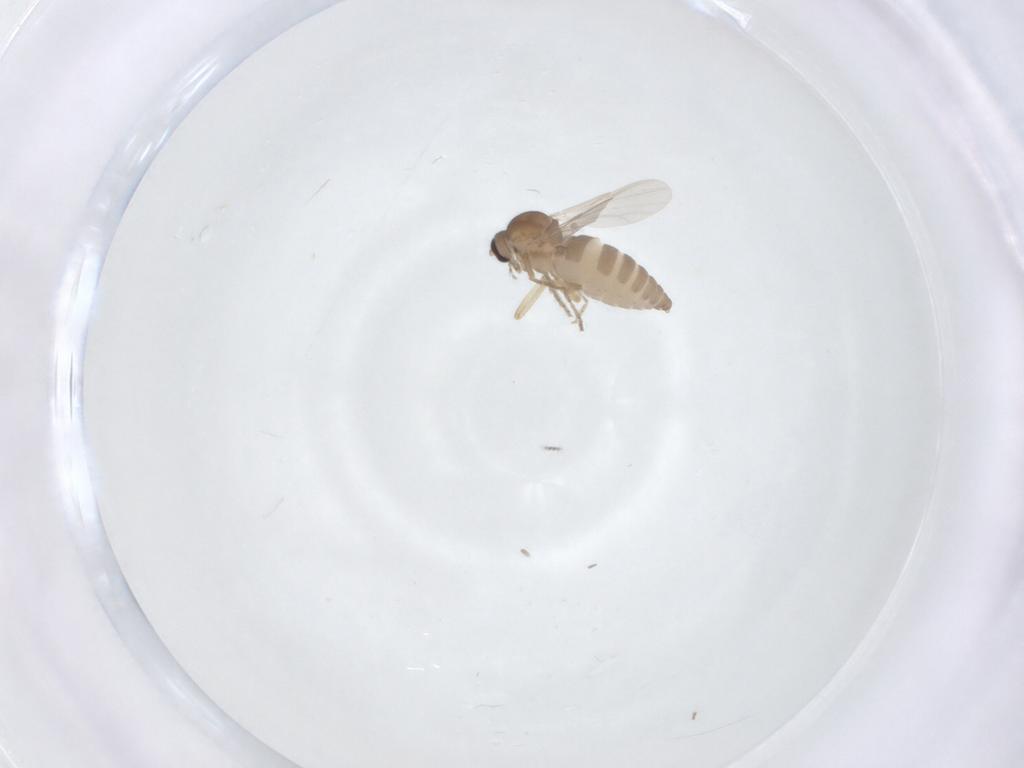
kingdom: Animalia
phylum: Arthropoda
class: Insecta
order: Diptera
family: Ceratopogonidae
